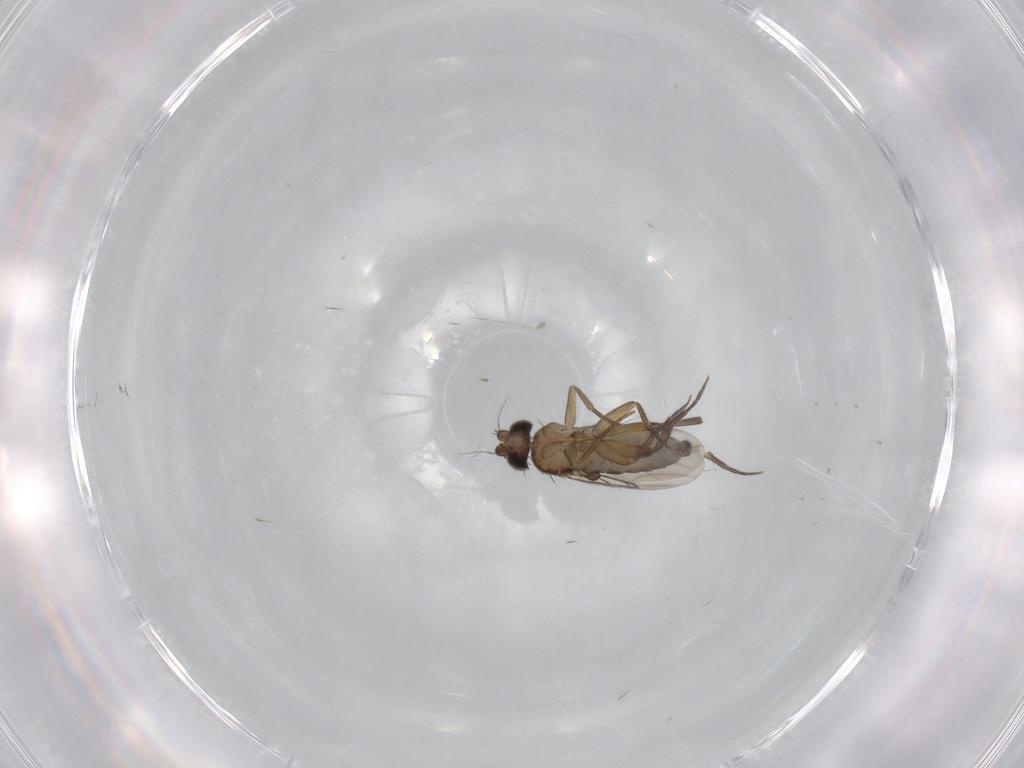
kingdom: Animalia
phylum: Arthropoda
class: Insecta
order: Diptera
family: Phoridae
